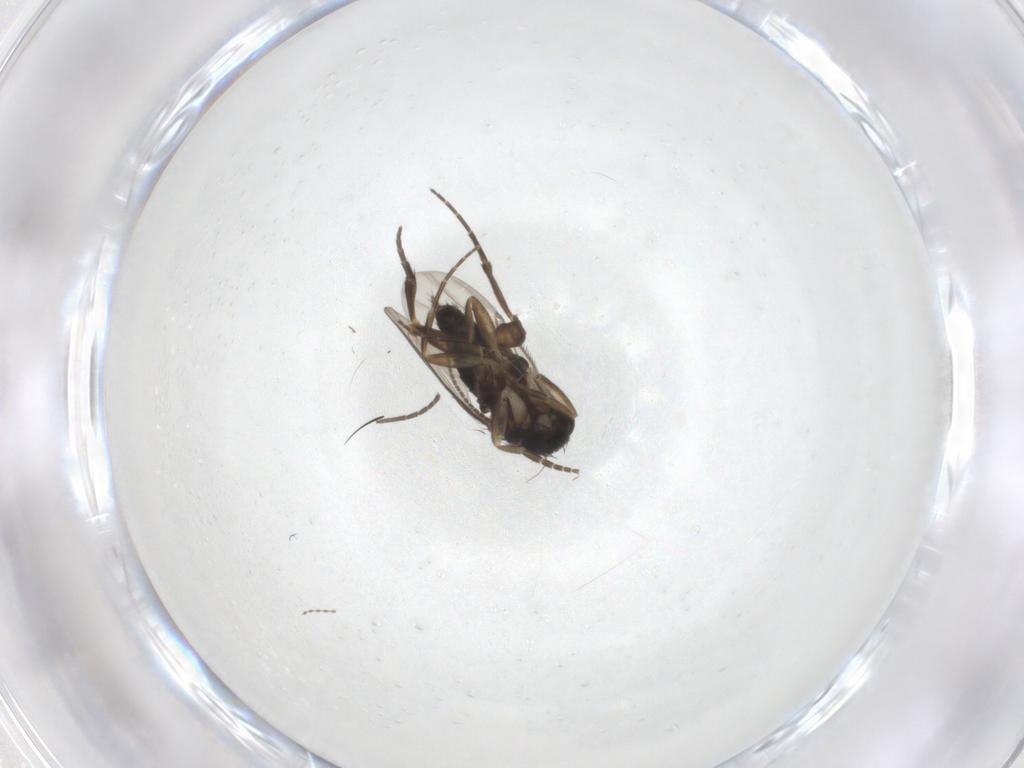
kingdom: Animalia
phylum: Arthropoda
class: Insecta
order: Diptera
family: Phoridae
